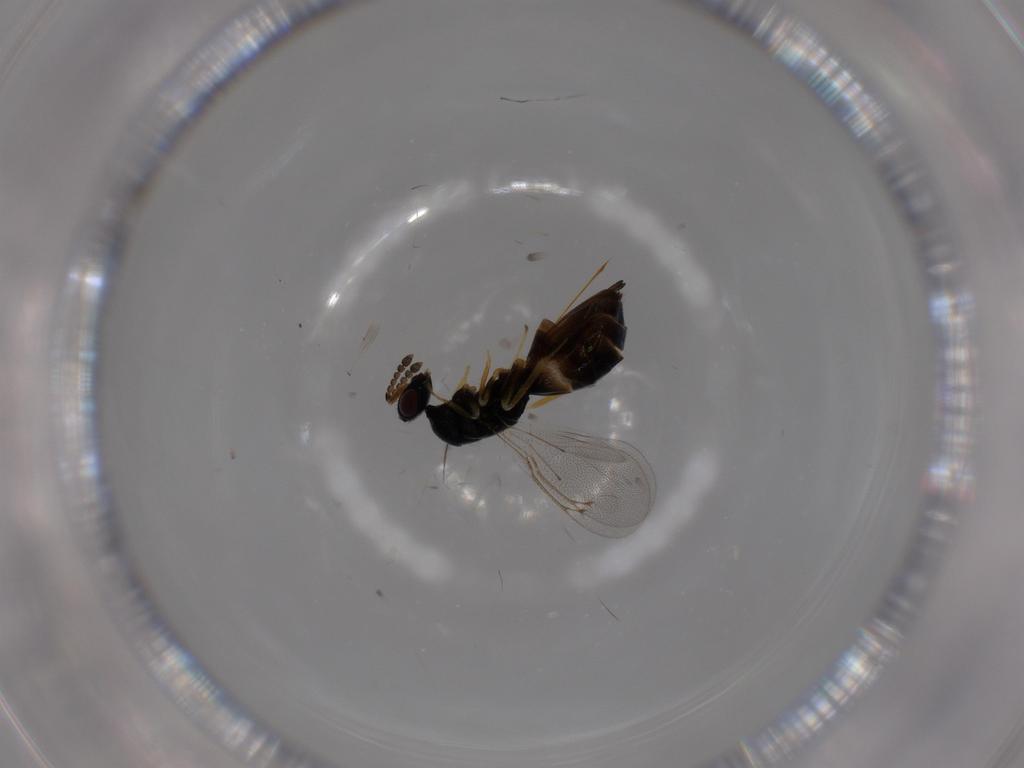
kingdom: Animalia
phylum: Arthropoda
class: Insecta
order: Hymenoptera
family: Eulophidae
